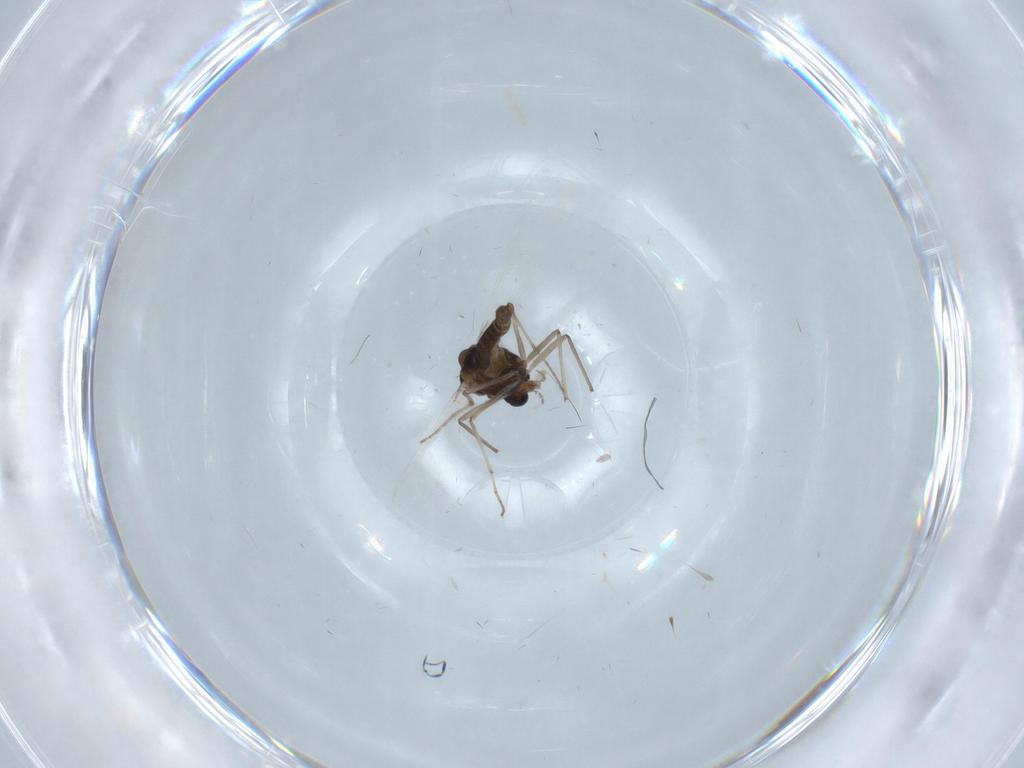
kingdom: Animalia
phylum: Arthropoda
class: Insecta
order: Diptera
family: Chironomidae
